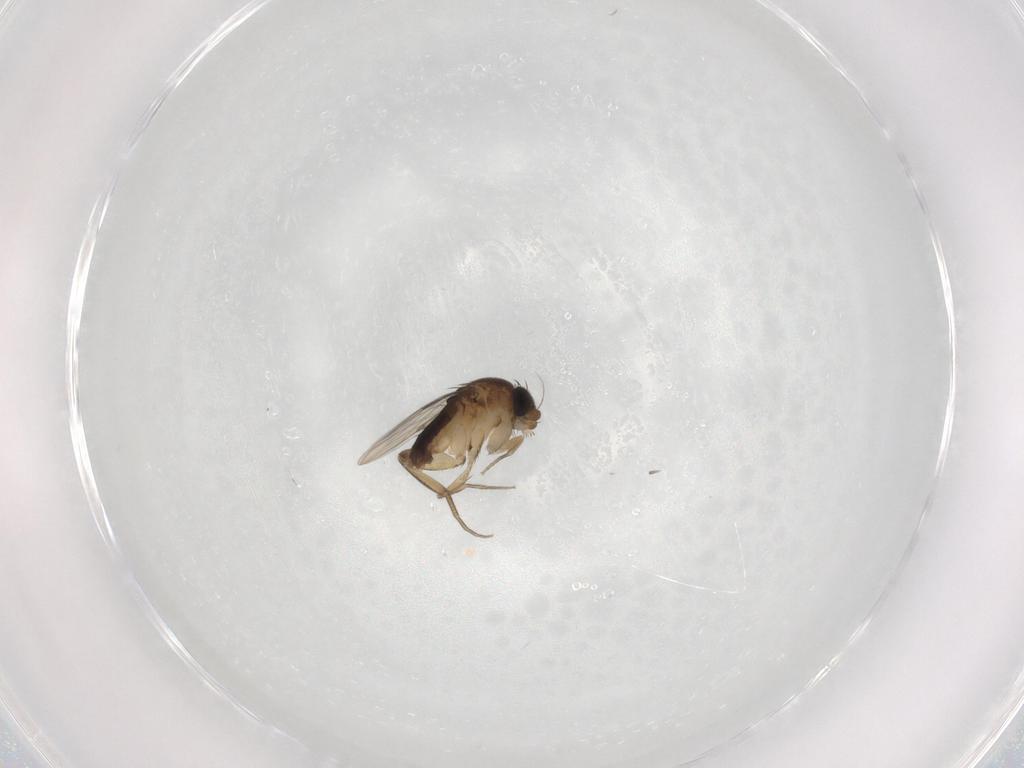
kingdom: Animalia
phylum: Arthropoda
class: Insecta
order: Diptera
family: Phoridae
